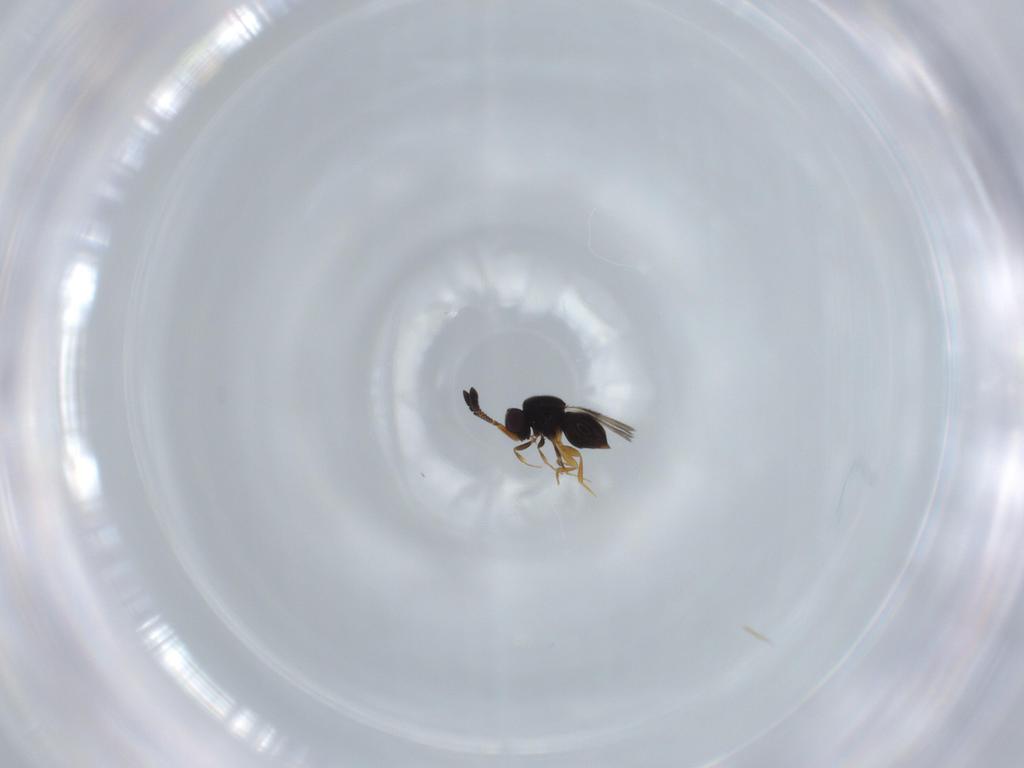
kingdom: Animalia
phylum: Arthropoda
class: Insecta
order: Hymenoptera
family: Diapriidae
